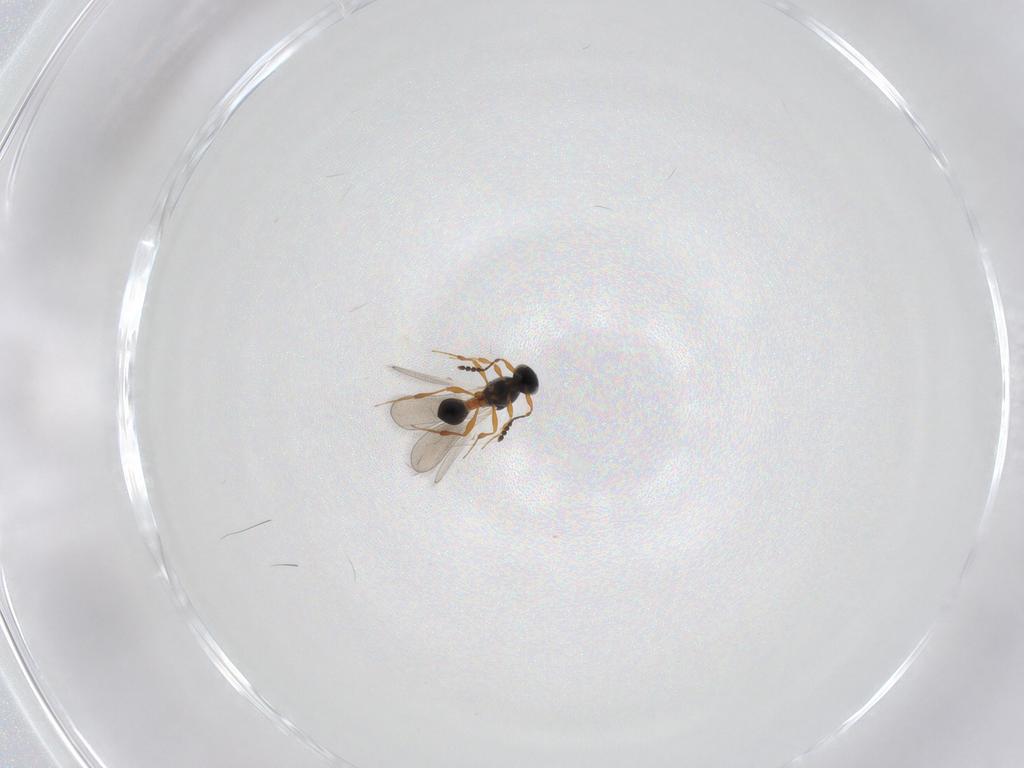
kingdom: Animalia
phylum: Arthropoda
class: Insecta
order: Hymenoptera
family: Platygastridae
